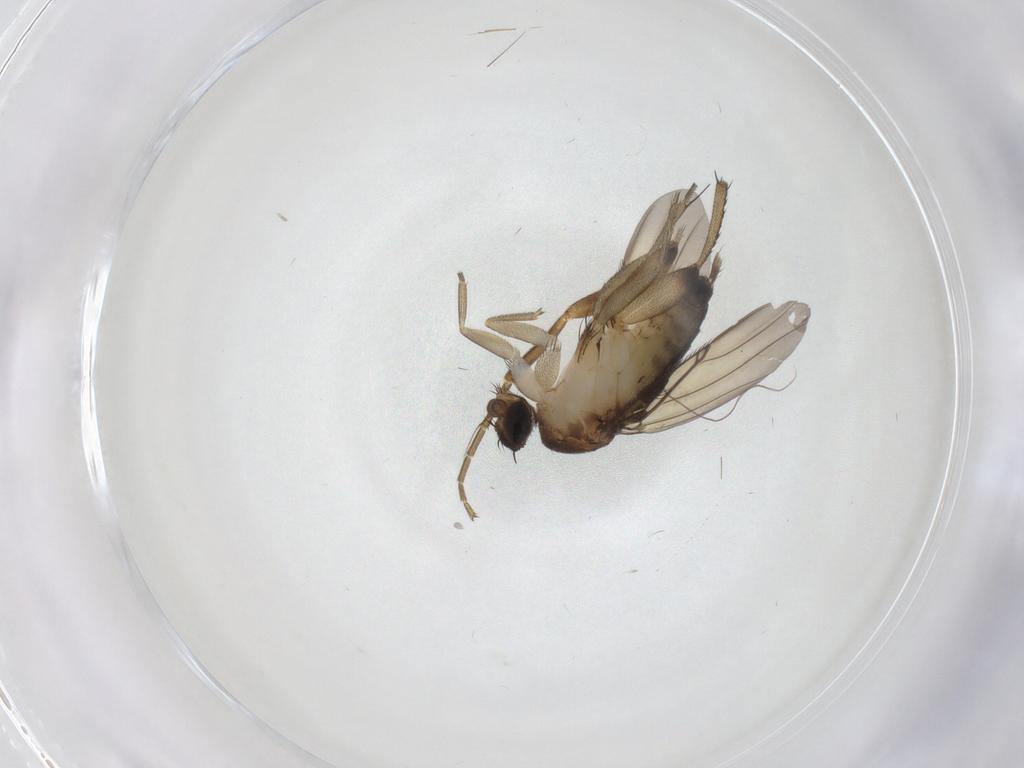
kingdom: Animalia
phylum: Arthropoda
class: Insecta
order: Diptera
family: Phoridae
